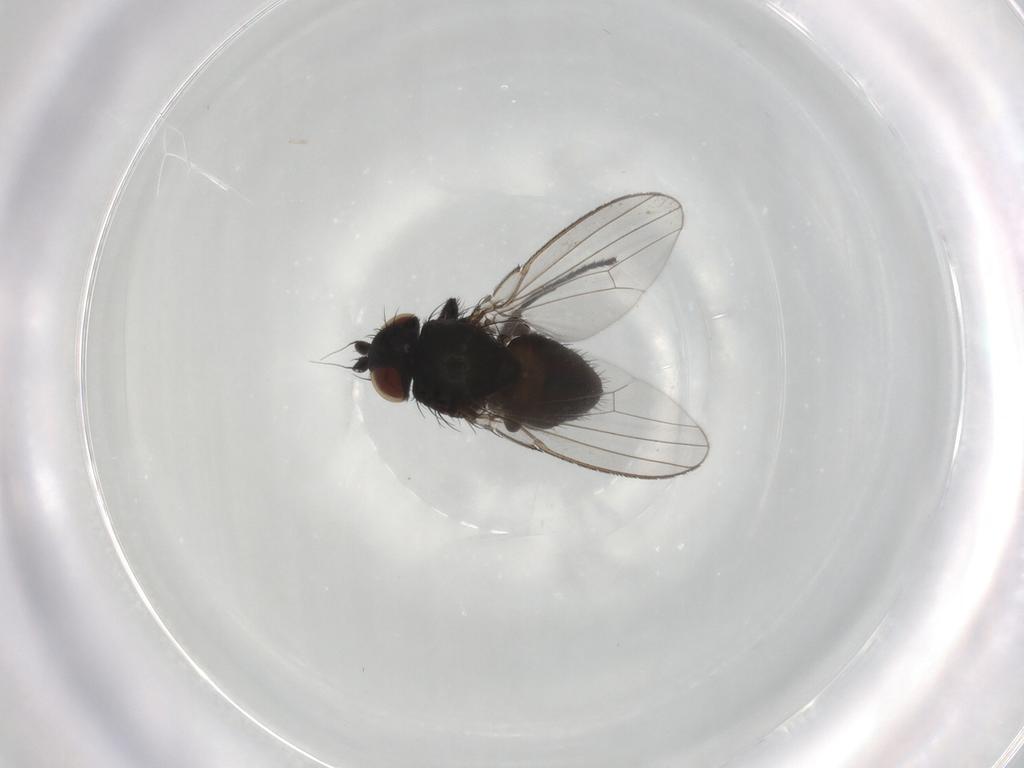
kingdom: Animalia
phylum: Arthropoda
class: Insecta
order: Diptera
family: Milichiidae
